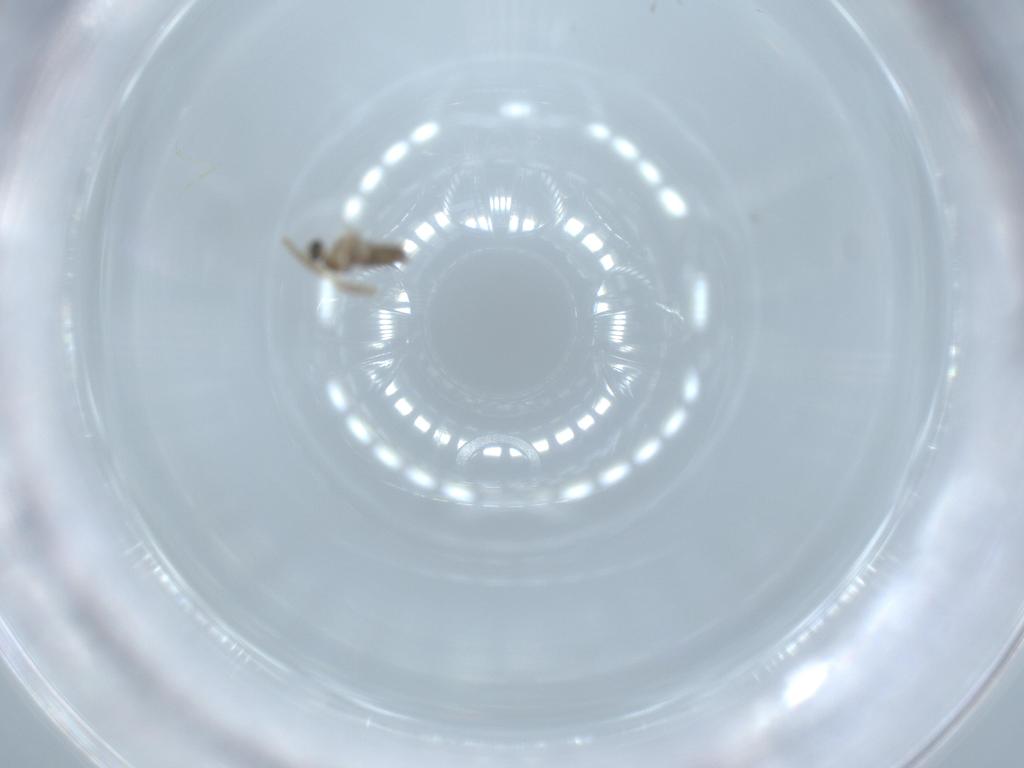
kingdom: Animalia
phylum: Arthropoda
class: Insecta
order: Diptera
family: Cecidomyiidae
